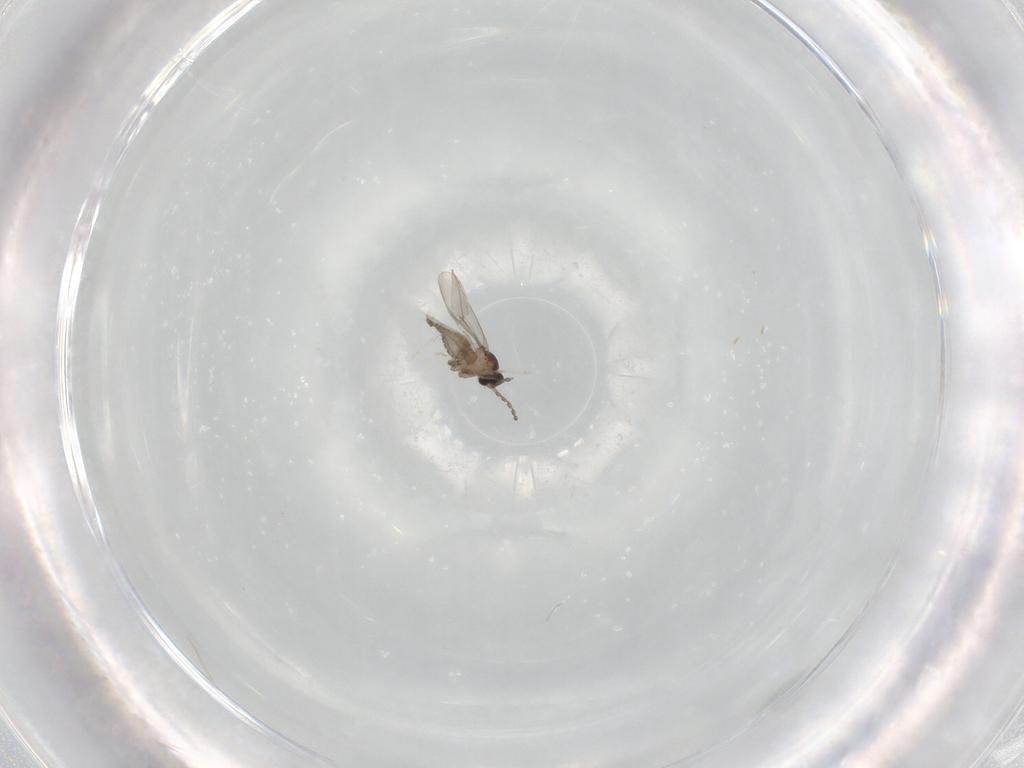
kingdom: Animalia
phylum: Arthropoda
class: Insecta
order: Diptera
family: Cecidomyiidae
